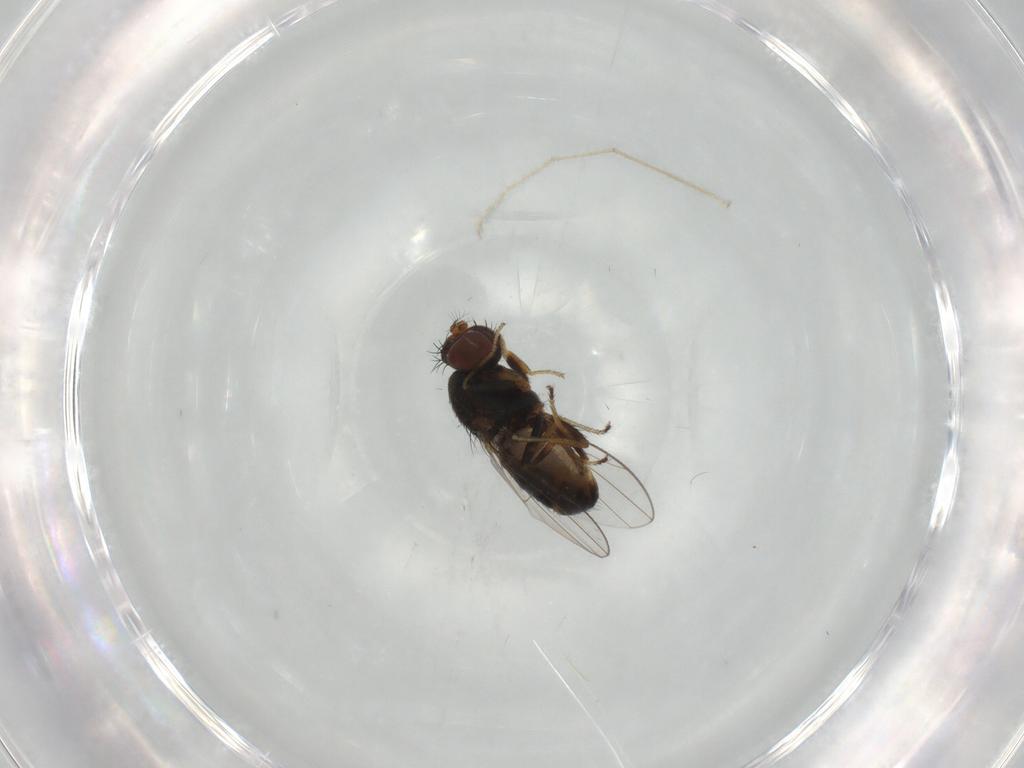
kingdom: Animalia
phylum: Arthropoda
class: Insecta
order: Diptera
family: Ephydridae
